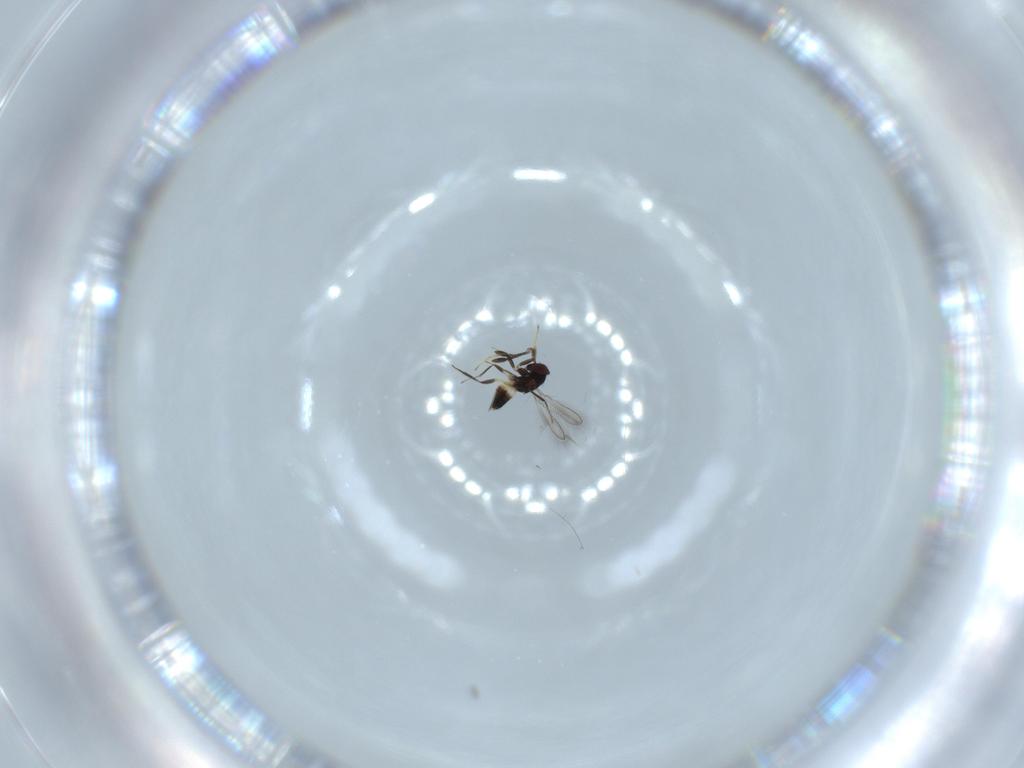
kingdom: Animalia
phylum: Arthropoda
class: Insecta
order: Hymenoptera
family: Mymaridae
